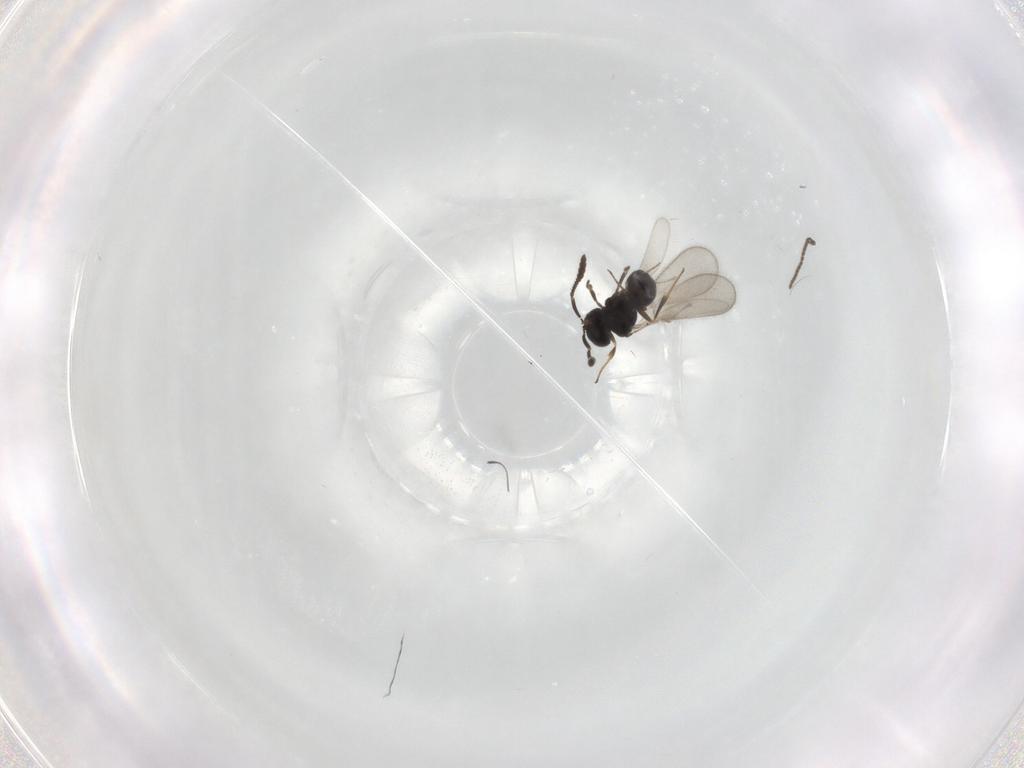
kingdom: Animalia
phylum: Arthropoda
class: Insecta
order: Hymenoptera
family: Scelionidae
